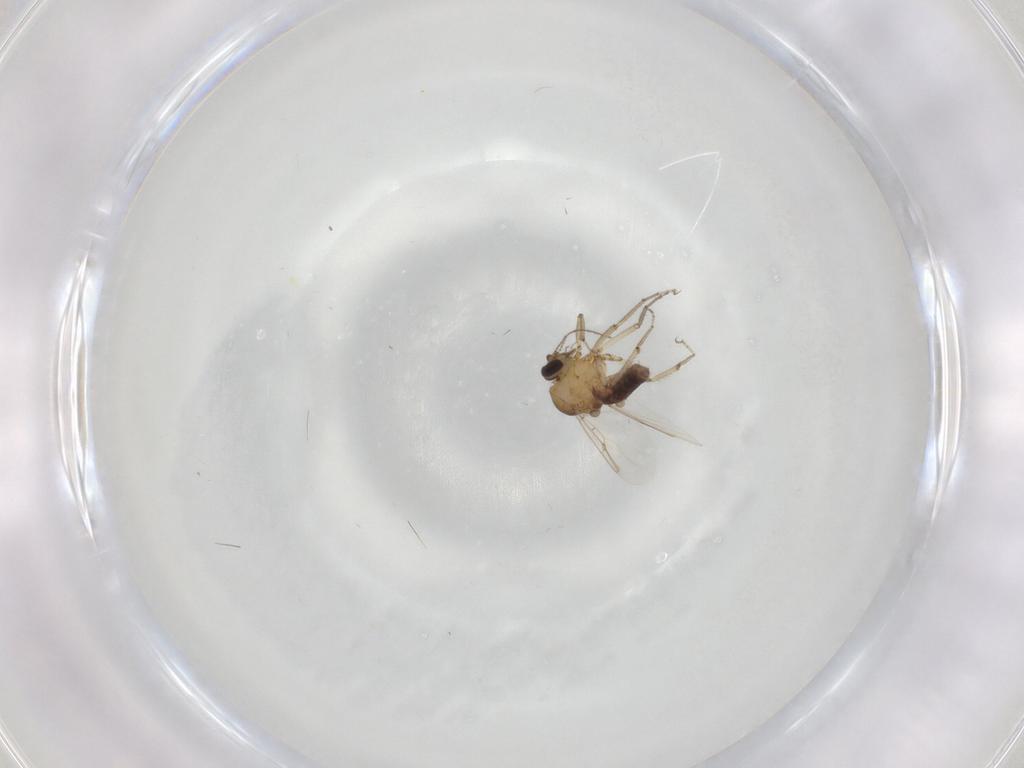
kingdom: Animalia
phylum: Arthropoda
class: Insecta
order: Diptera
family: Ceratopogonidae
